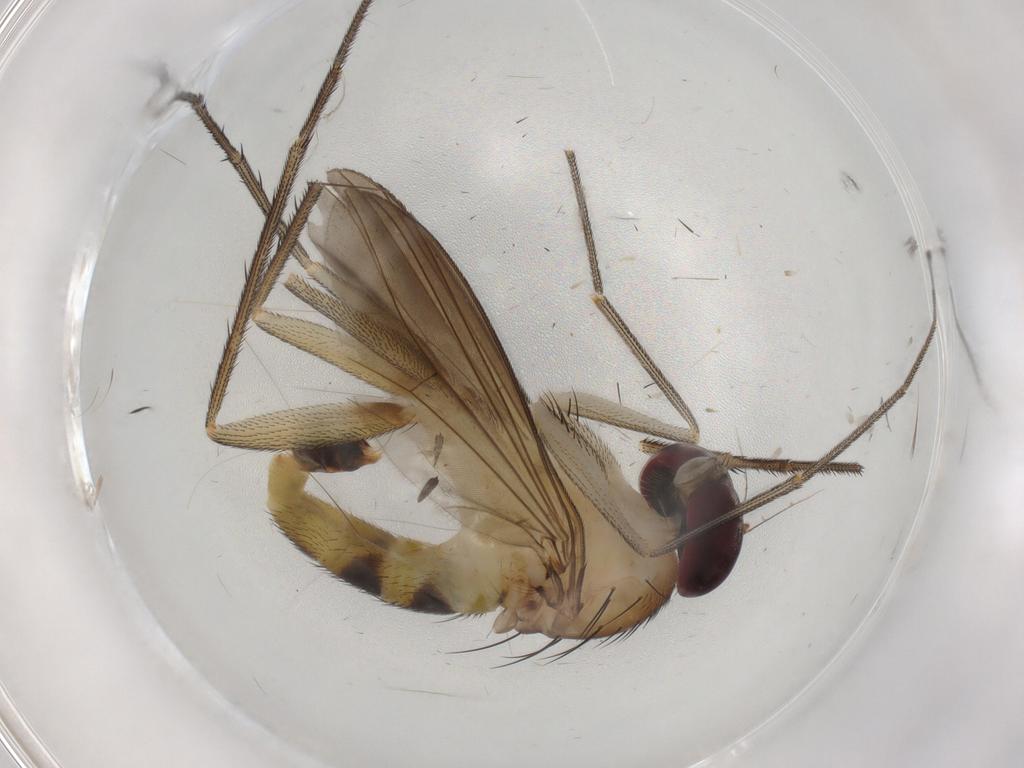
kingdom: Animalia
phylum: Arthropoda
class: Insecta
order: Diptera
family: Dolichopodidae
